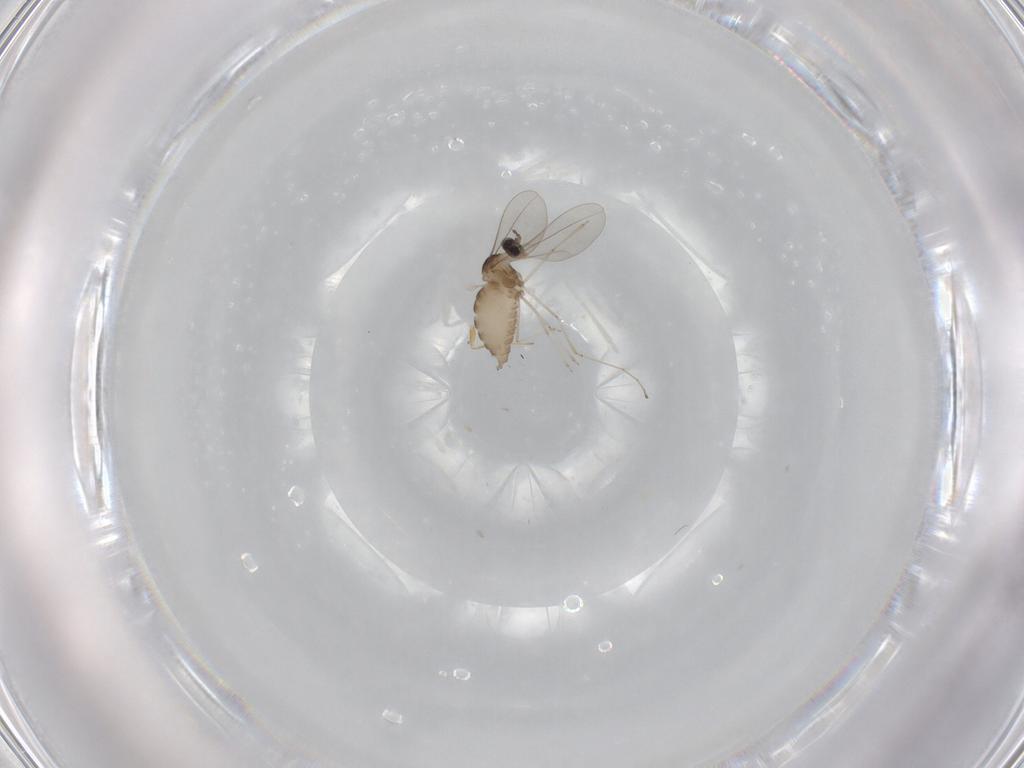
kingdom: Animalia
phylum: Arthropoda
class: Insecta
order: Diptera
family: Cecidomyiidae
